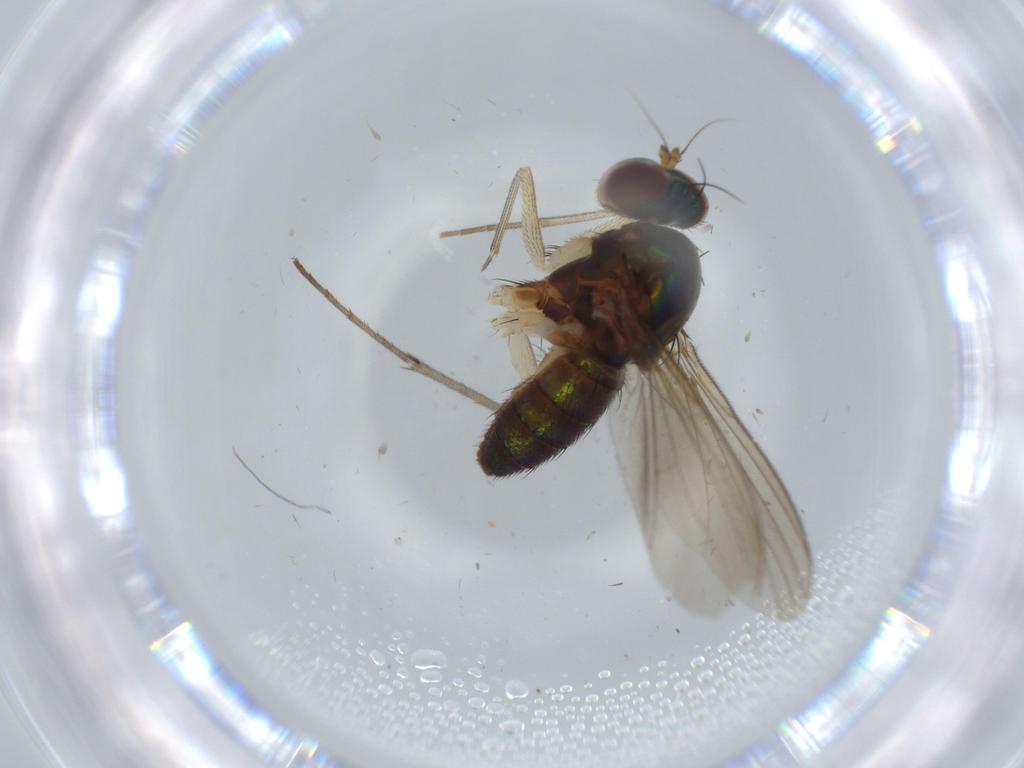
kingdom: Animalia
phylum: Arthropoda
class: Insecta
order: Diptera
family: Dolichopodidae
